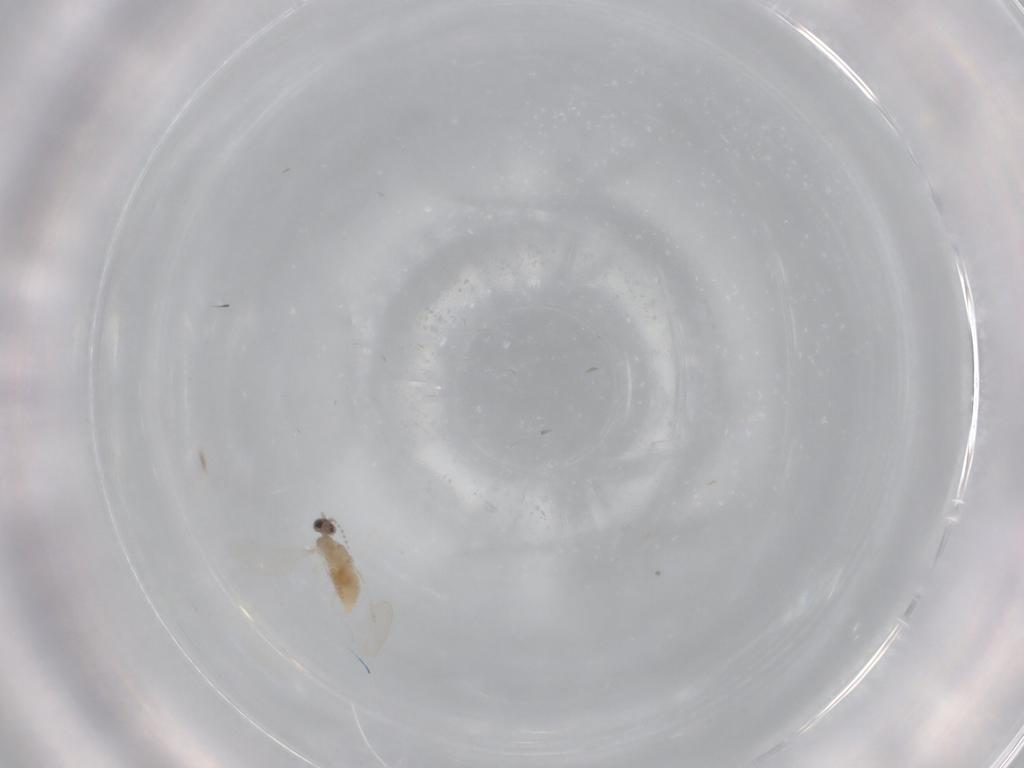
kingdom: Animalia
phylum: Arthropoda
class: Insecta
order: Diptera
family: Cecidomyiidae
